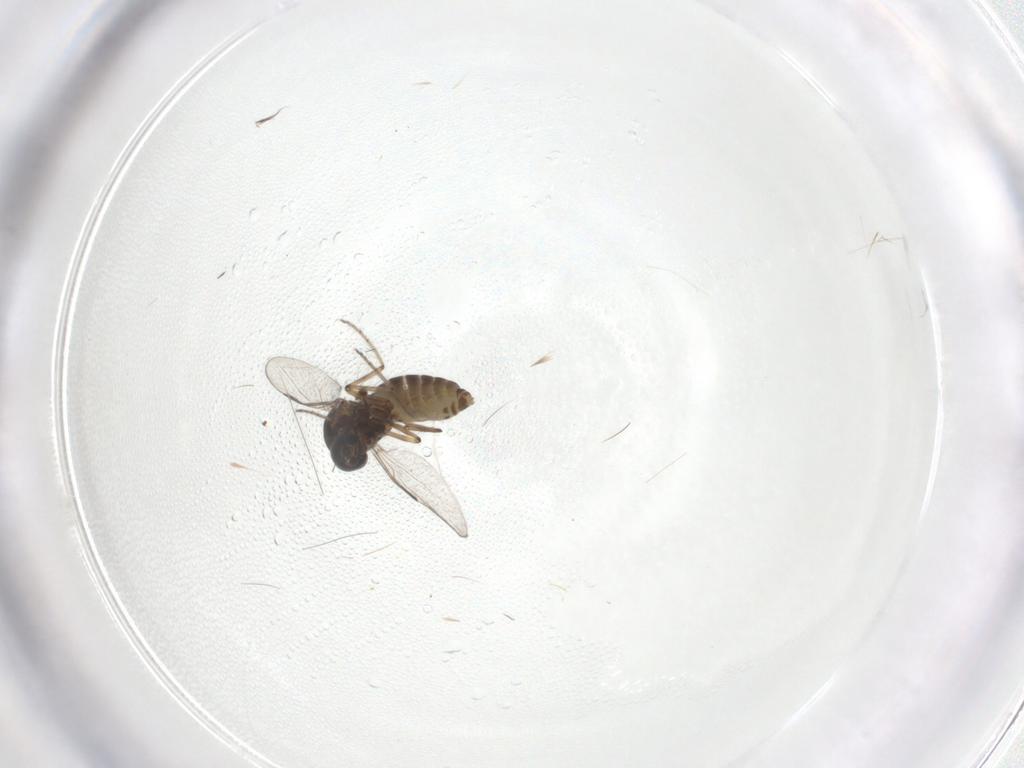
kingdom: Animalia
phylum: Arthropoda
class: Insecta
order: Diptera
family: Ceratopogonidae
